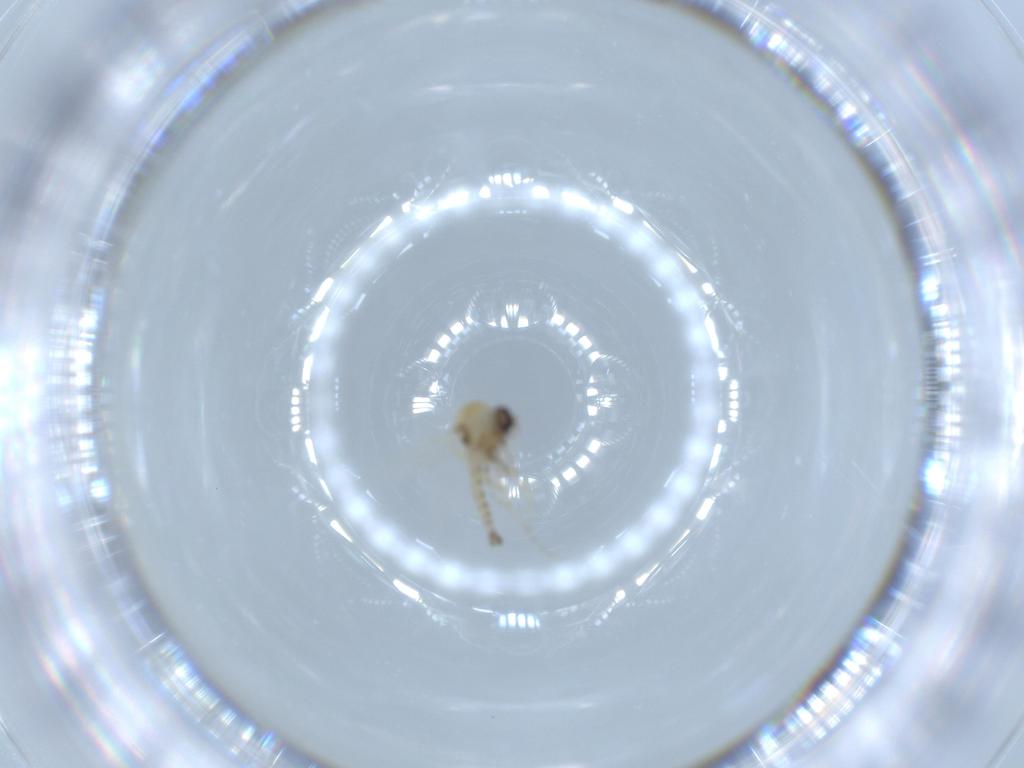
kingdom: Animalia
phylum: Arthropoda
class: Insecta
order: Diptera
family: Ceratopogonidae
